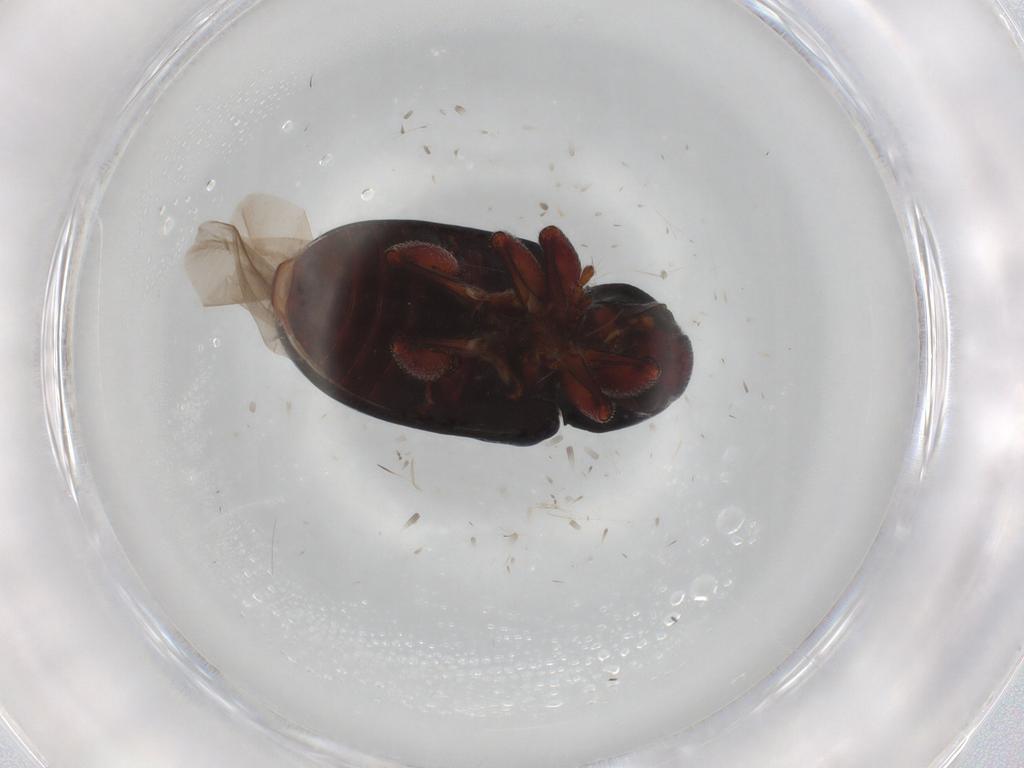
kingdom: Animalia
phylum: Arthropoda
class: Insecta
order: Coleoptera
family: Chrysomelidae
